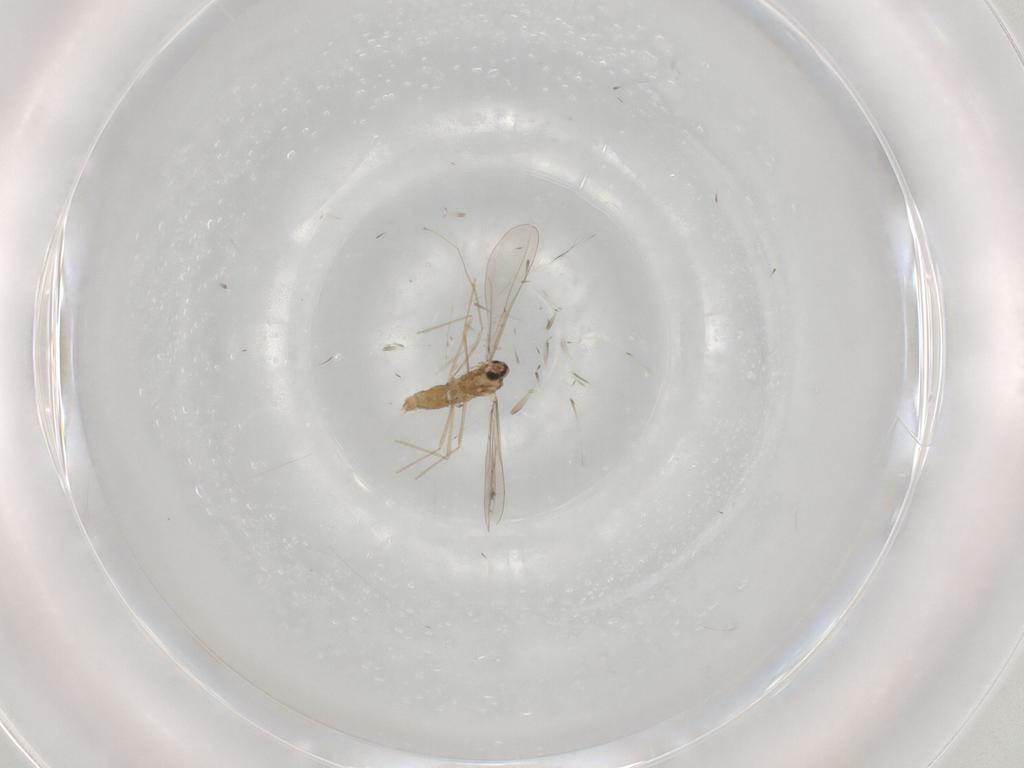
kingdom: Animalia
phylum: Arthropoda
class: Insecta
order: Diptera
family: Cecidomyiidae
